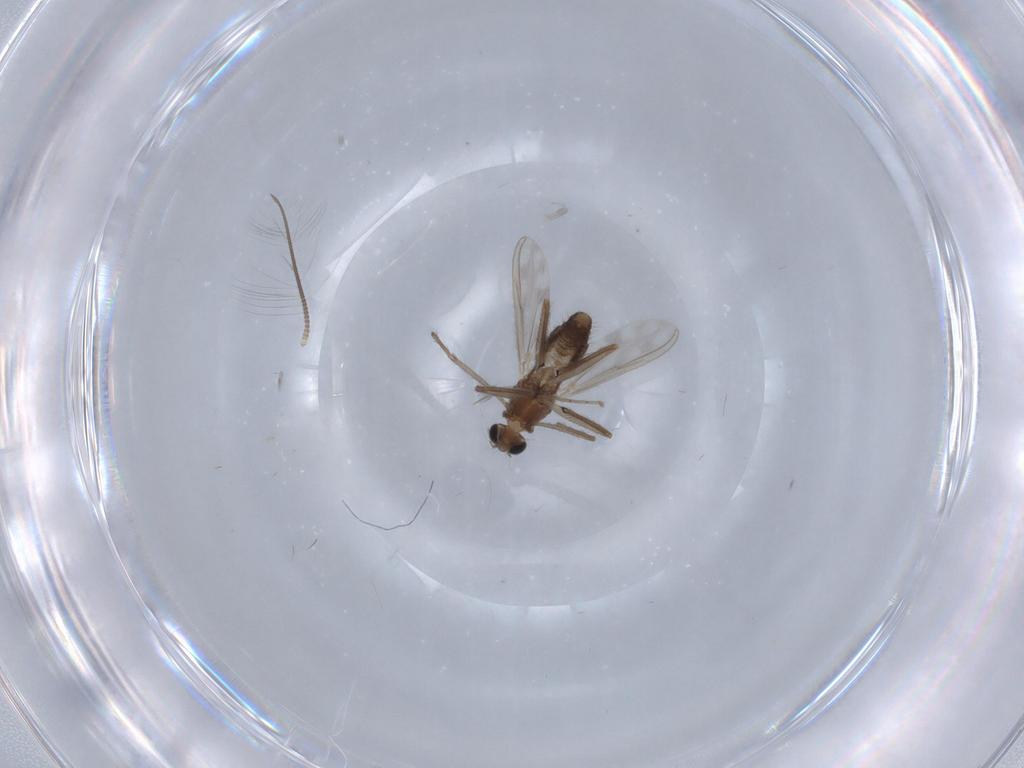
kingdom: Animalia
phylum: Arthropoda
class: Insecta
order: Diptera
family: Chironomidae
